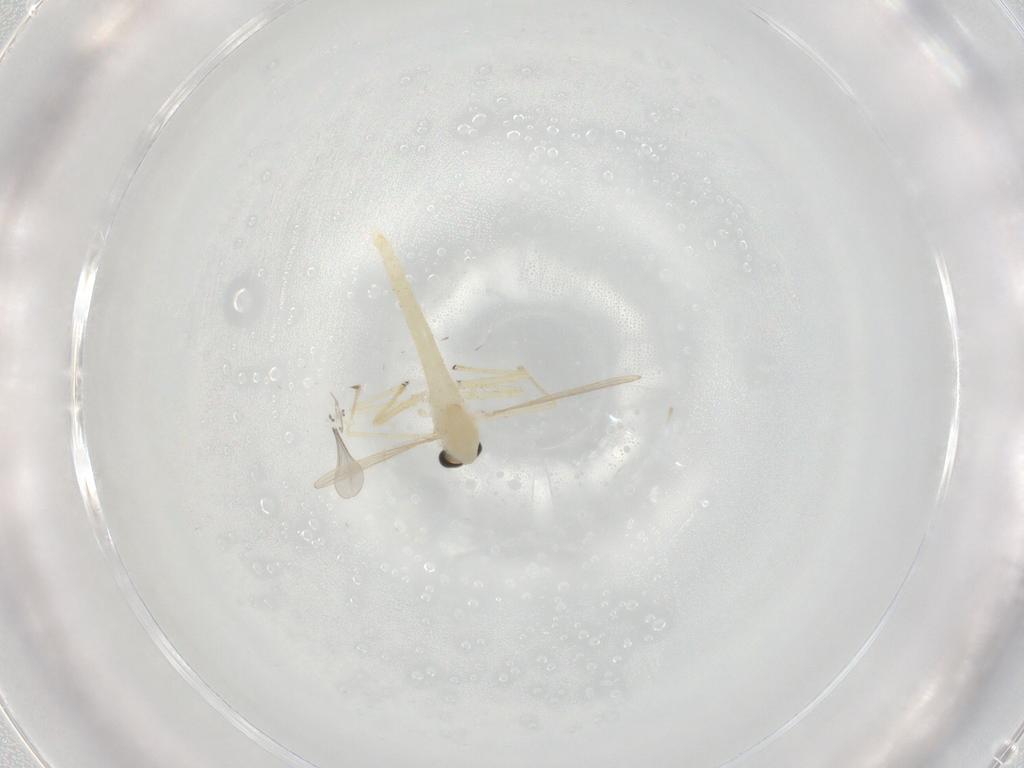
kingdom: Animalia
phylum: Arthropoda
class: Insecta
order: Diptera
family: Chironomidae
